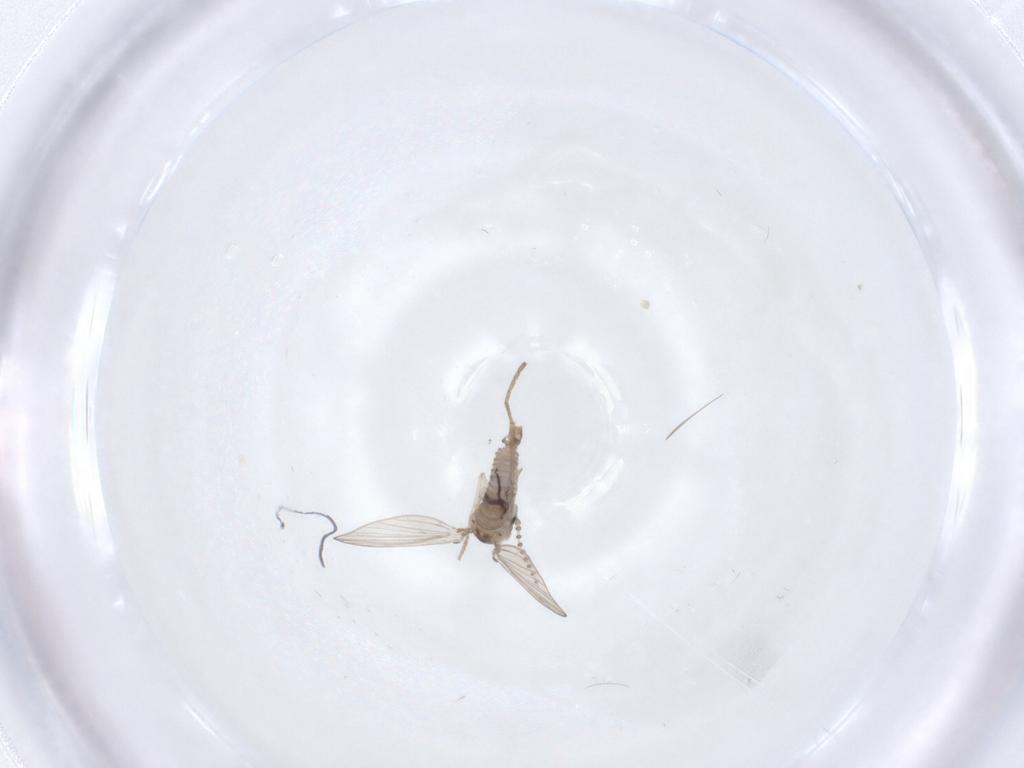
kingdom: Animalia
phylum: Arthropoda
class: Insecta
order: Diptera
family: Psychodidae
